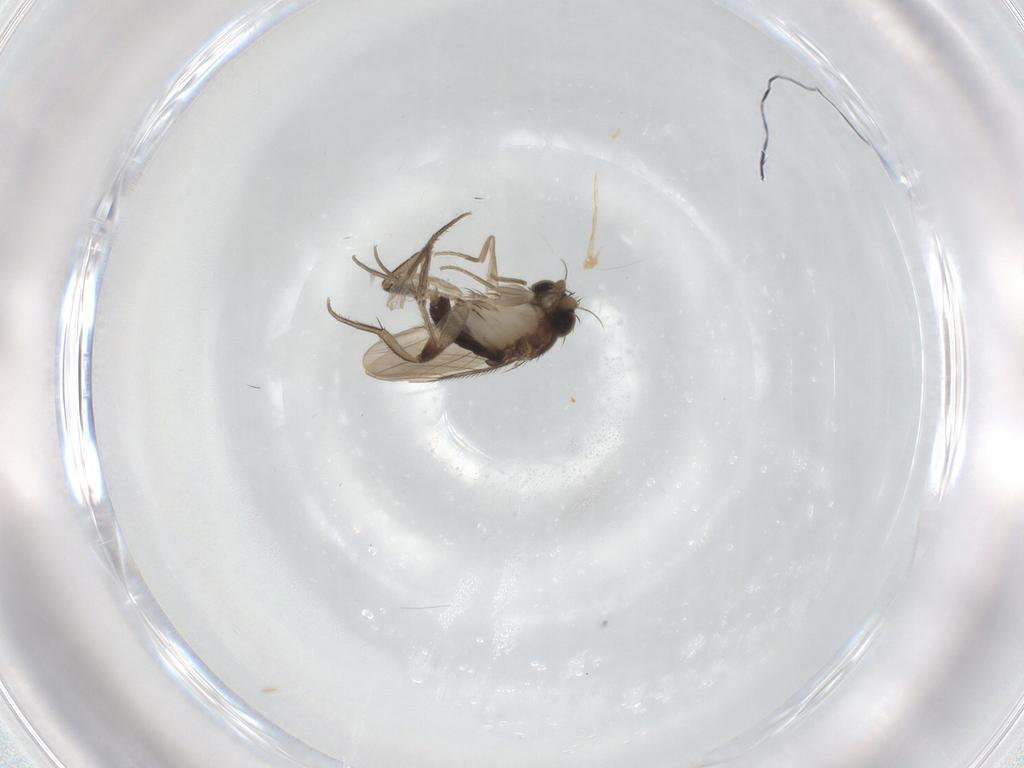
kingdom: Animalia
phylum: Arthropoda
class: Insecta
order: Diptera
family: Phoridae
